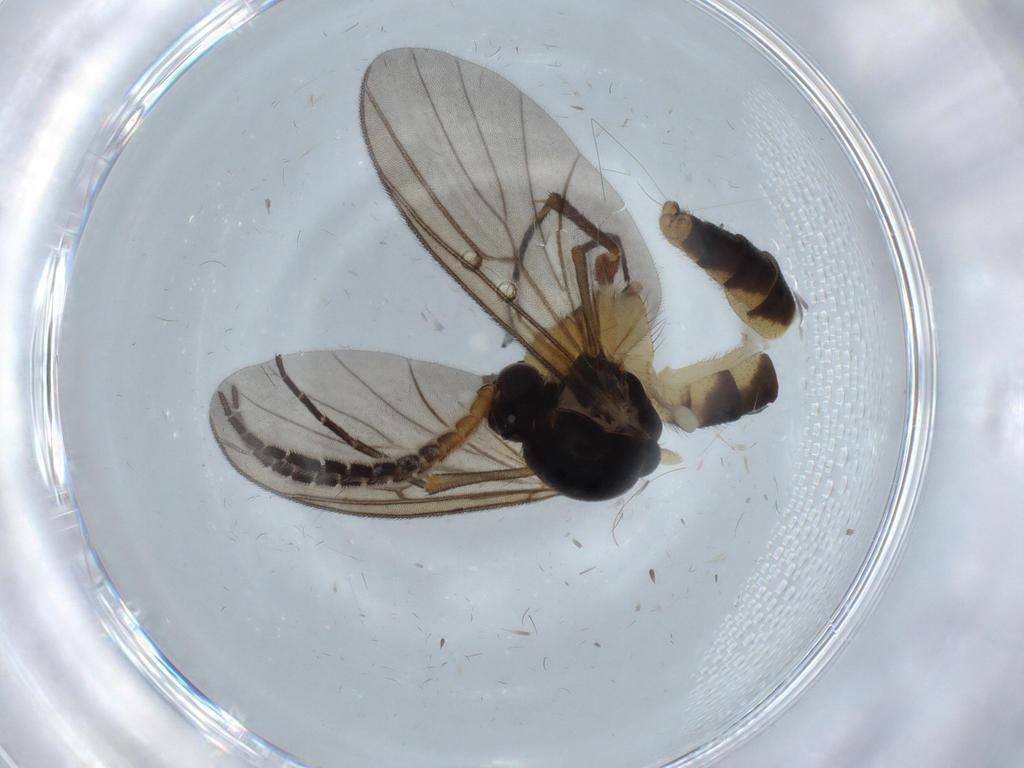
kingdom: Animalia
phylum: Arthropoda
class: Insecta
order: Diptera
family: Mycetophilidae
